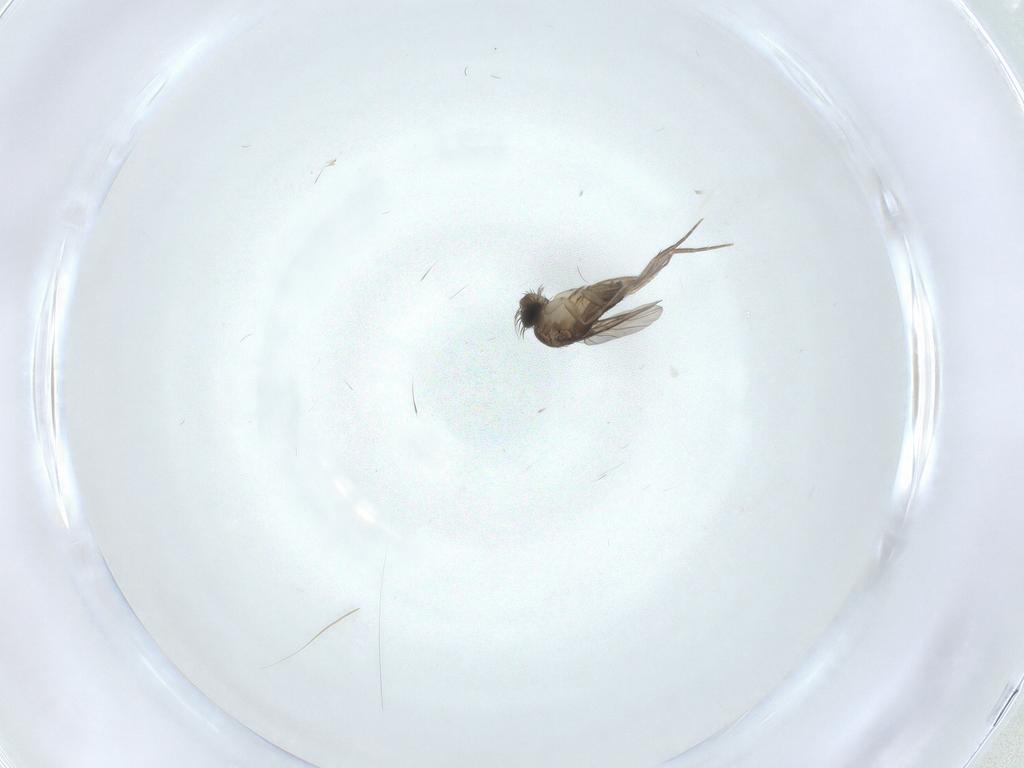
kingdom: Animalia
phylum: Arthropoda
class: Insecta
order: Diptera
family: Phoridae
